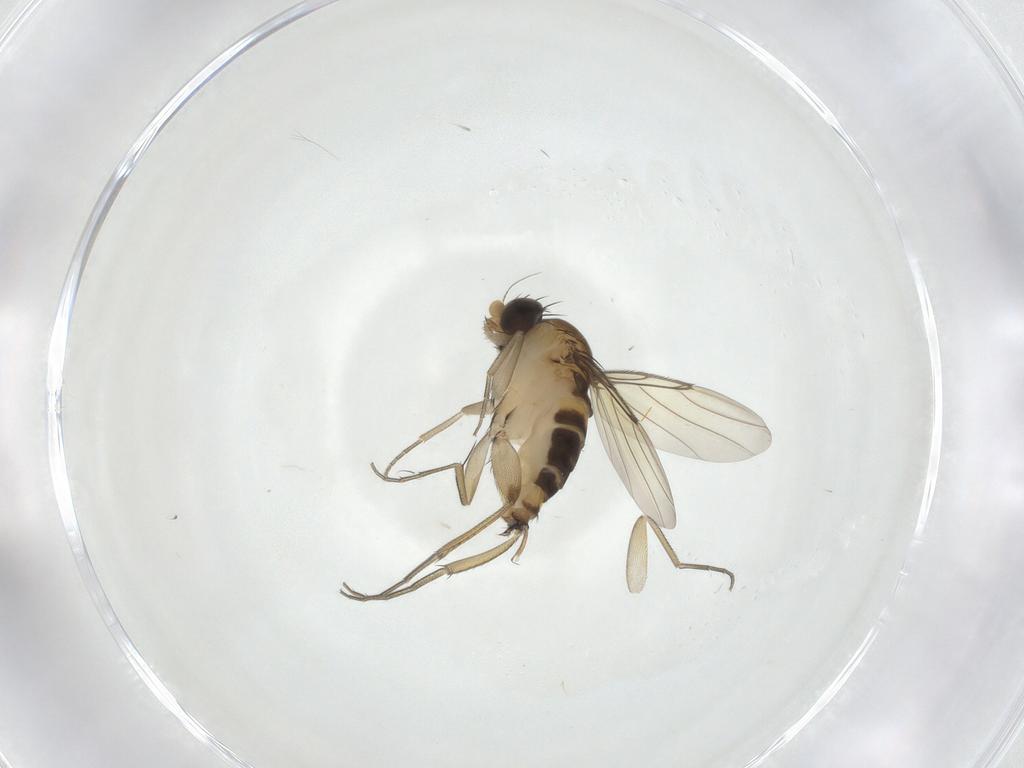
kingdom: Animalia
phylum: Arthropoda
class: Insecta
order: Diptera
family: Phoridae
